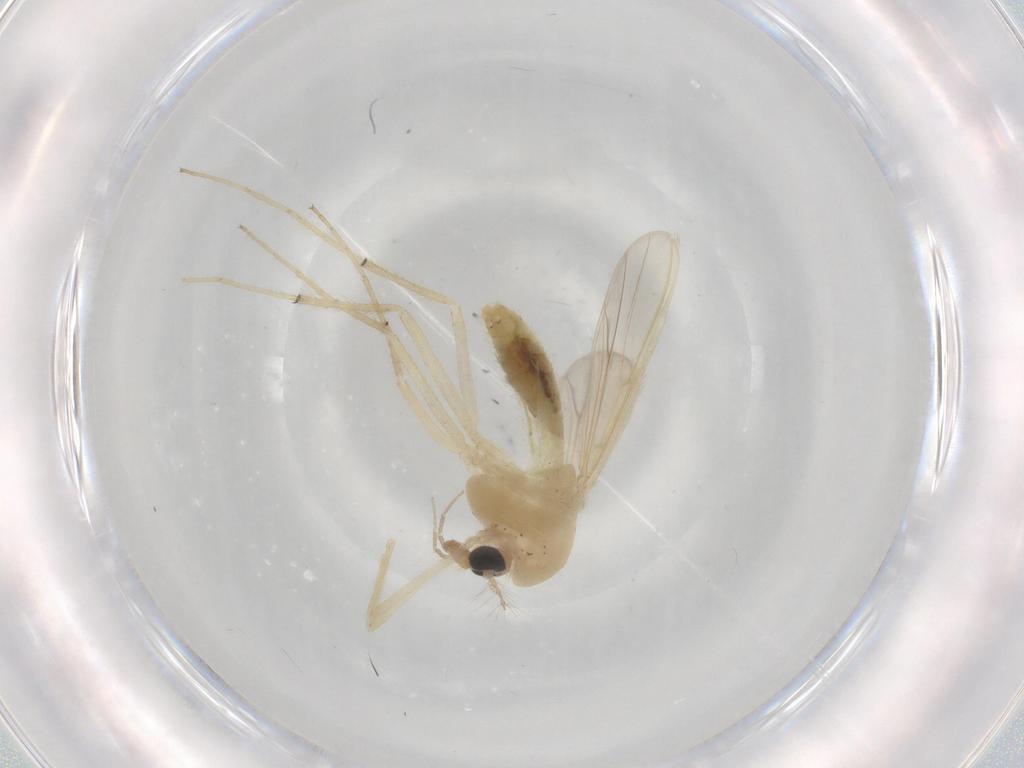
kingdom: Animalia
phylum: Arthropoda
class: Insecta
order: Diptera
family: Chironomidae
